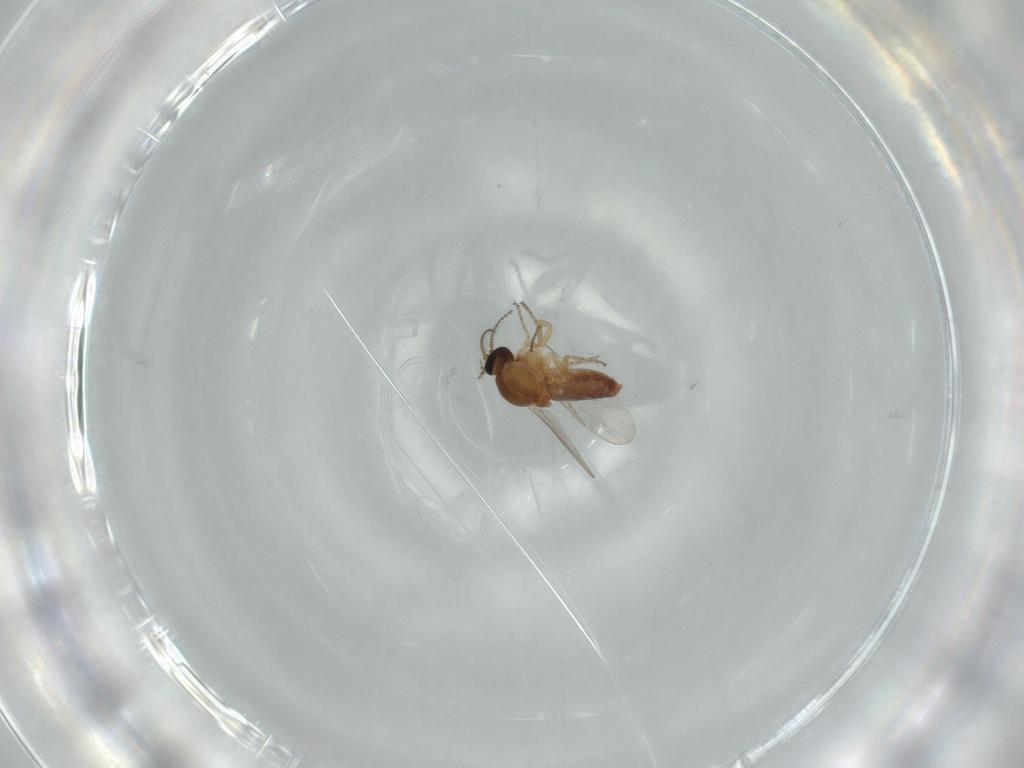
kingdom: Animalia
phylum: Arthropoda
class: Insecta
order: Diptera
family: Ceratopogonidae
